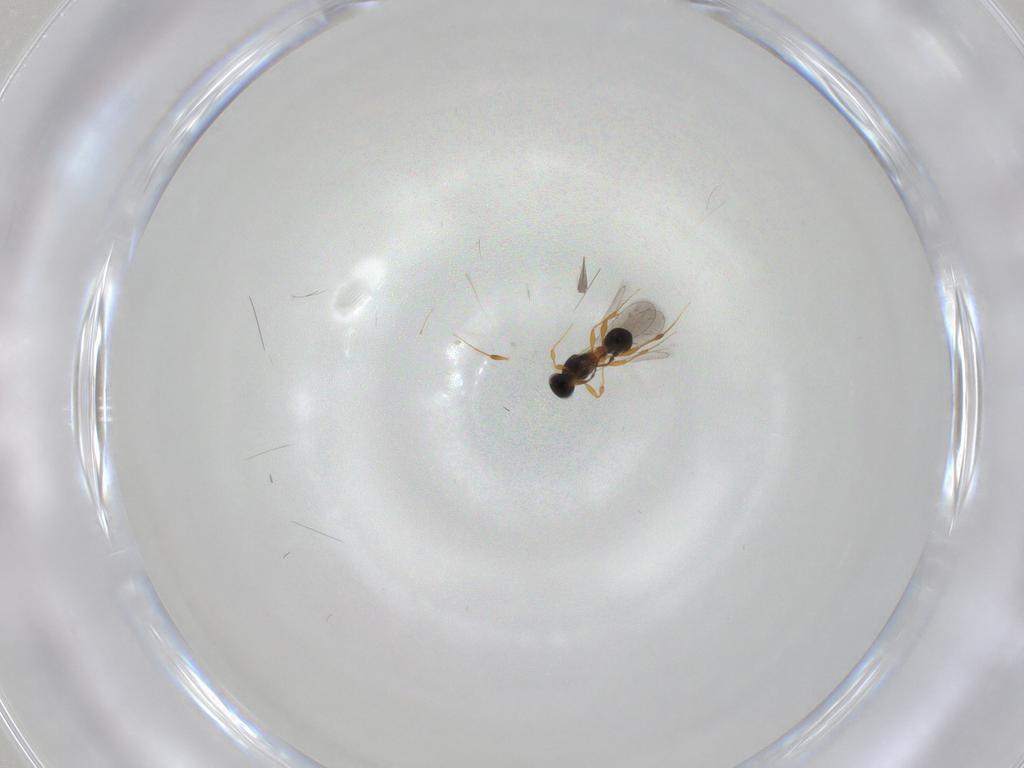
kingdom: Animalia
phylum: Arthropoda
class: Insecta
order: Hymenoptera
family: Platygastridae
